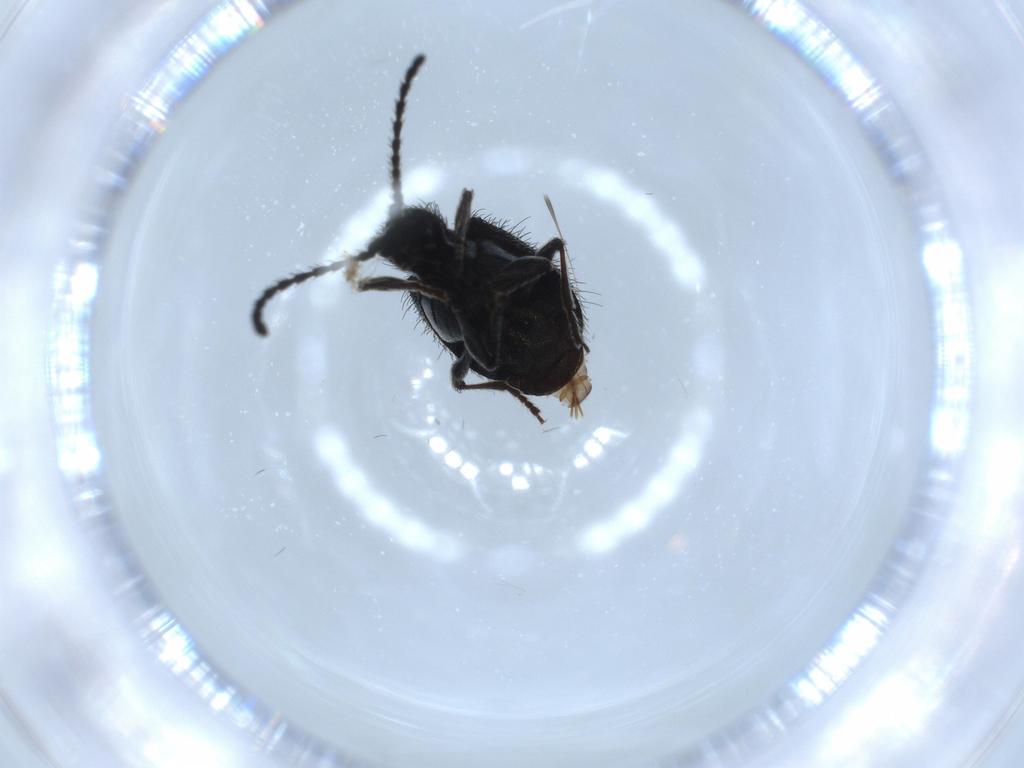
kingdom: Animalia
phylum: Arthropoda
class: Insecta
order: Coleoptera
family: Ptinidae
